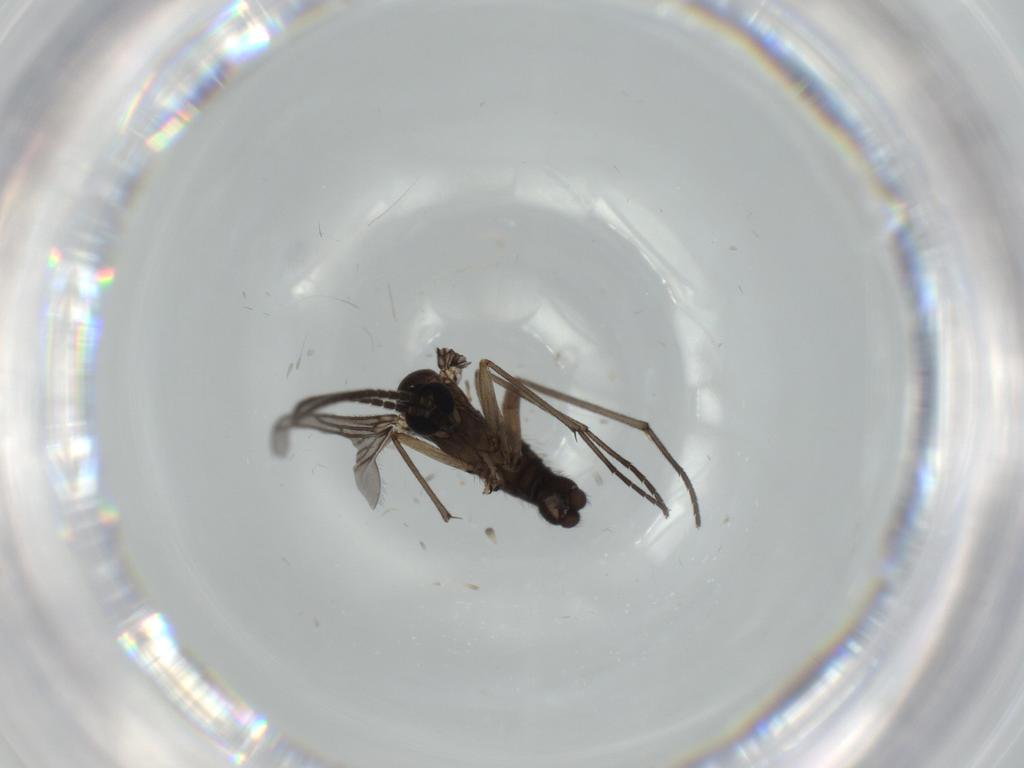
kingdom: Animalia
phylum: Arthropoda
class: Insecta
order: Diptera
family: Sciaridae
